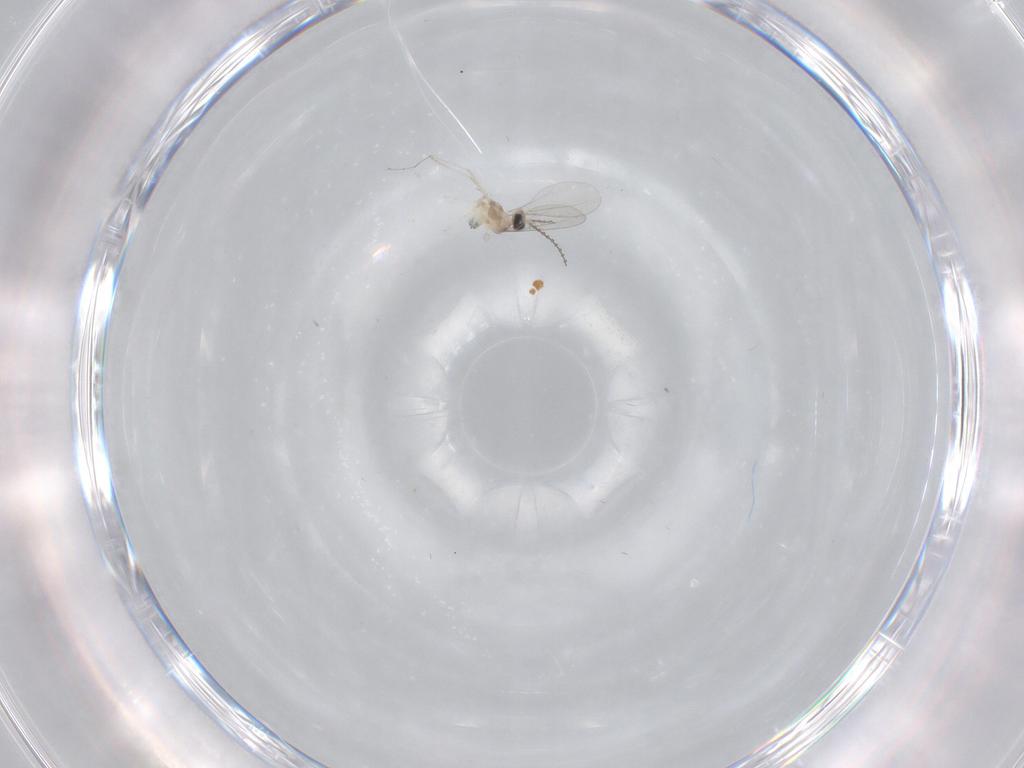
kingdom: Animalia
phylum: Arthropoda
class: Insecta
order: Diptera
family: Cecidomyiidae
